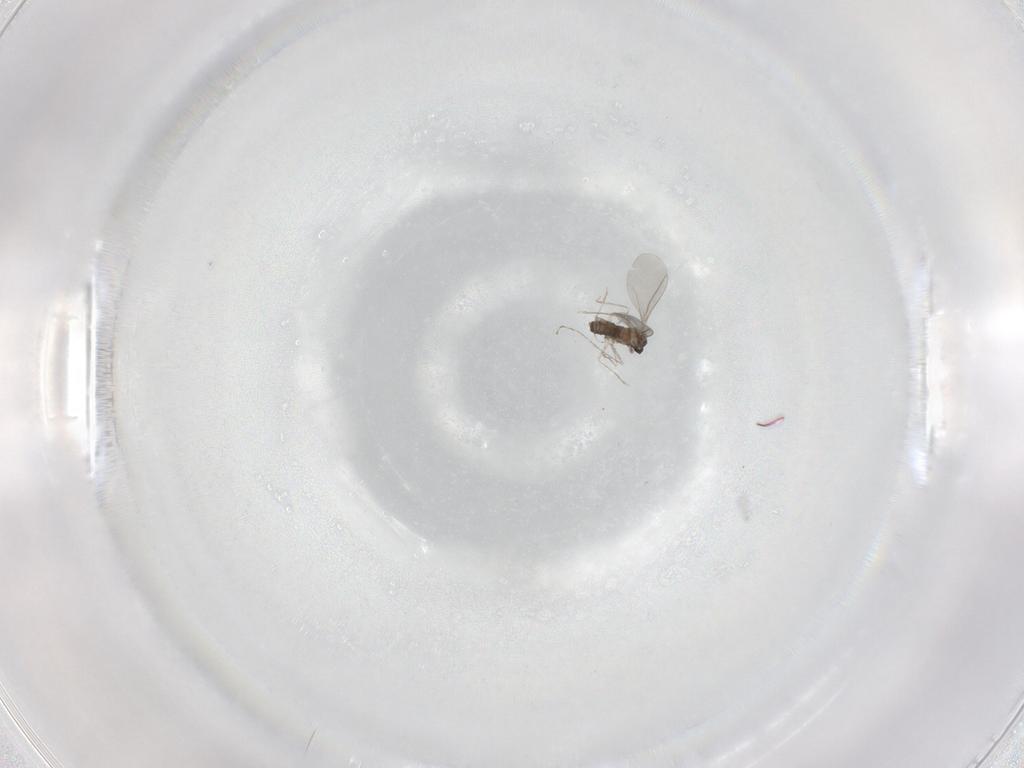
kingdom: Animalia
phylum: Arthropoda
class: Insecta
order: Diptera
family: Cecidomyiidae
